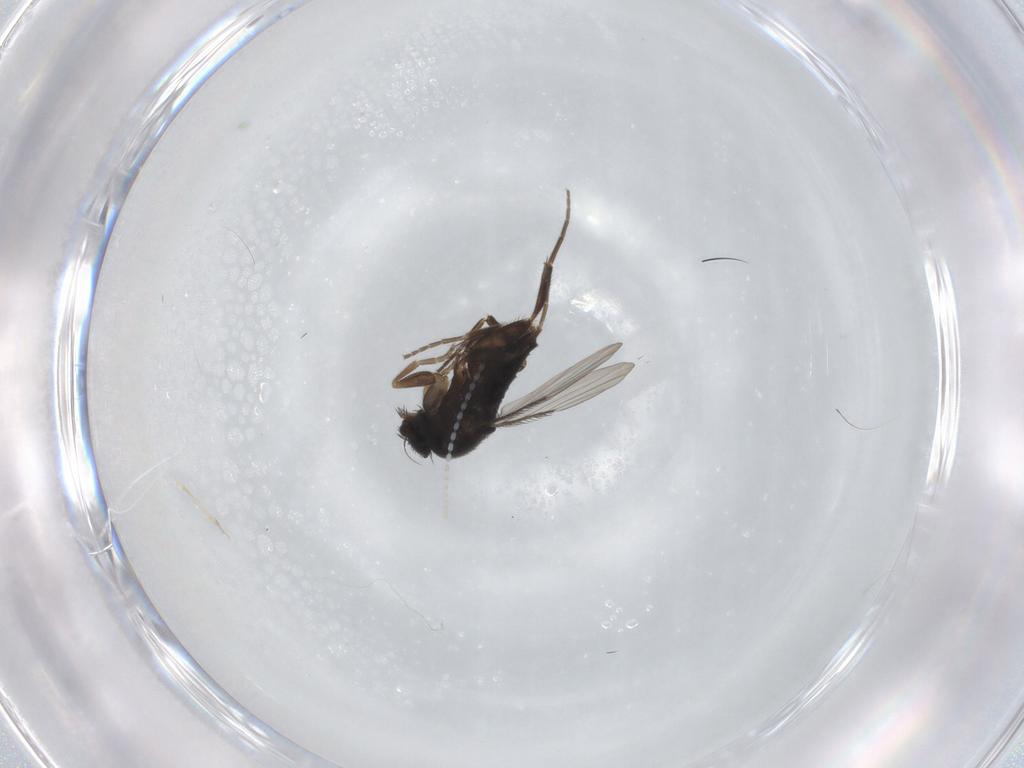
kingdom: Animalia
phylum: Arthropoda
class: Insecta
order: Diptera
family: Phoridae
